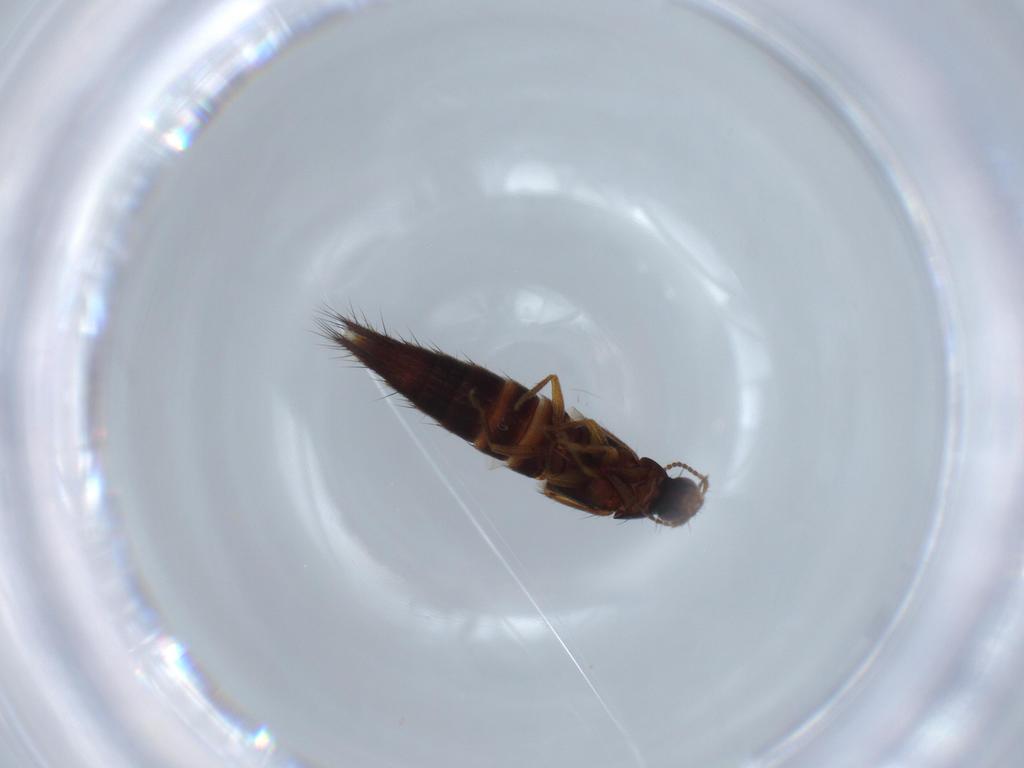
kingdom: Animalia
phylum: Arthropoda
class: Insecta
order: Coleoptera
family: Staphylinidae
